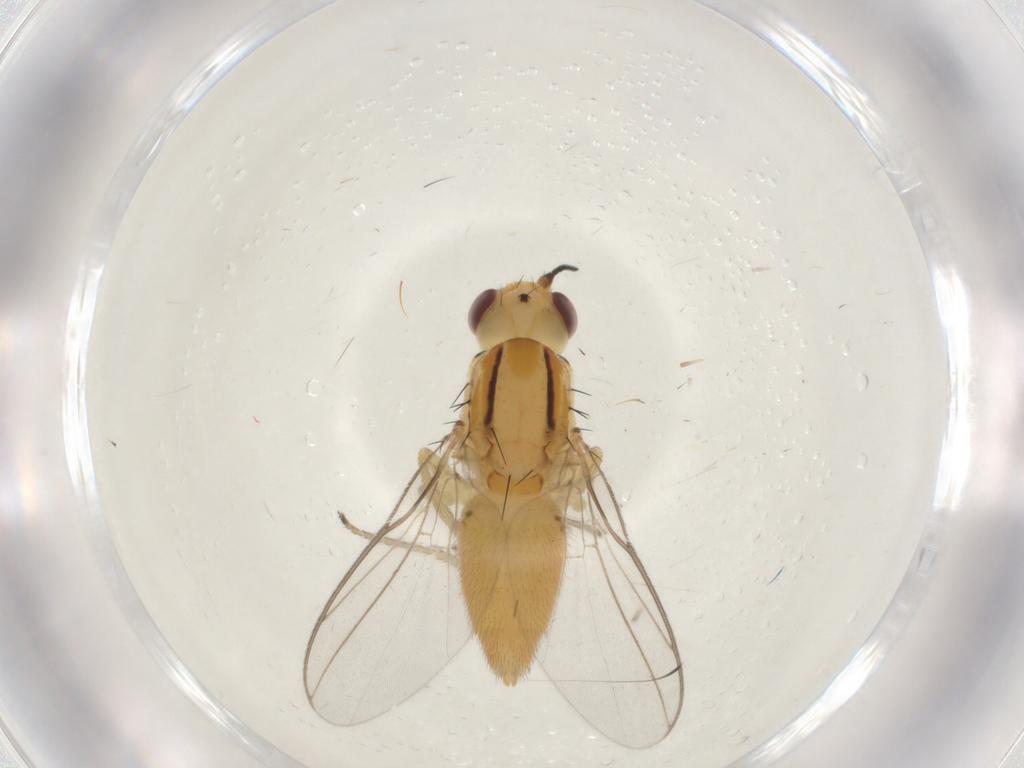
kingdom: Animalia
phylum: Arthropoda
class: Insecta
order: Diptera
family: Chloropidae
